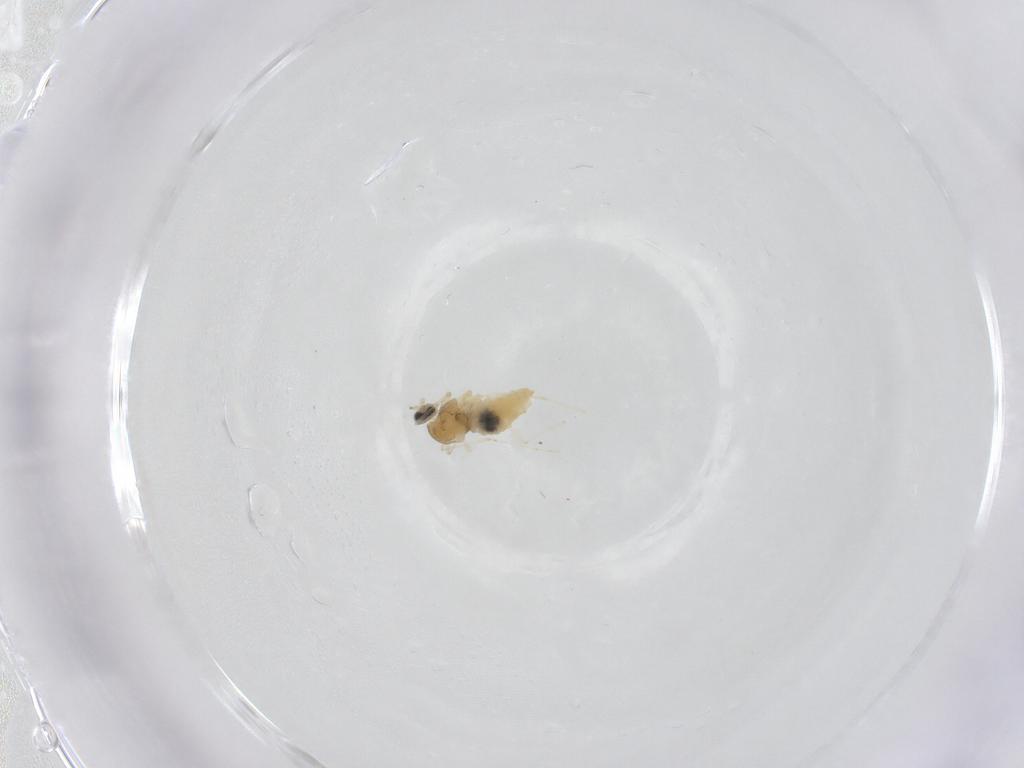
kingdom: Animalia
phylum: Arthropoda
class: Insecta
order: Diptera
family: Cecidomyiidae
